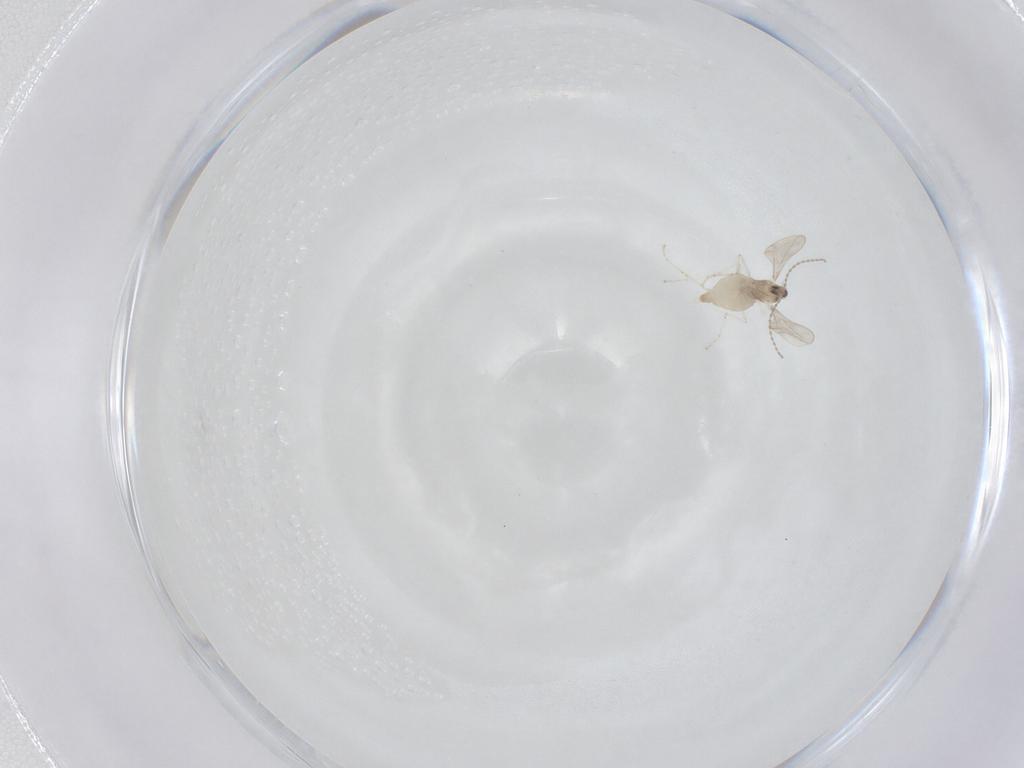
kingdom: Animalia
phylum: Arthropoda
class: Insecta
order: Diptera
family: Cecidomyiidae
